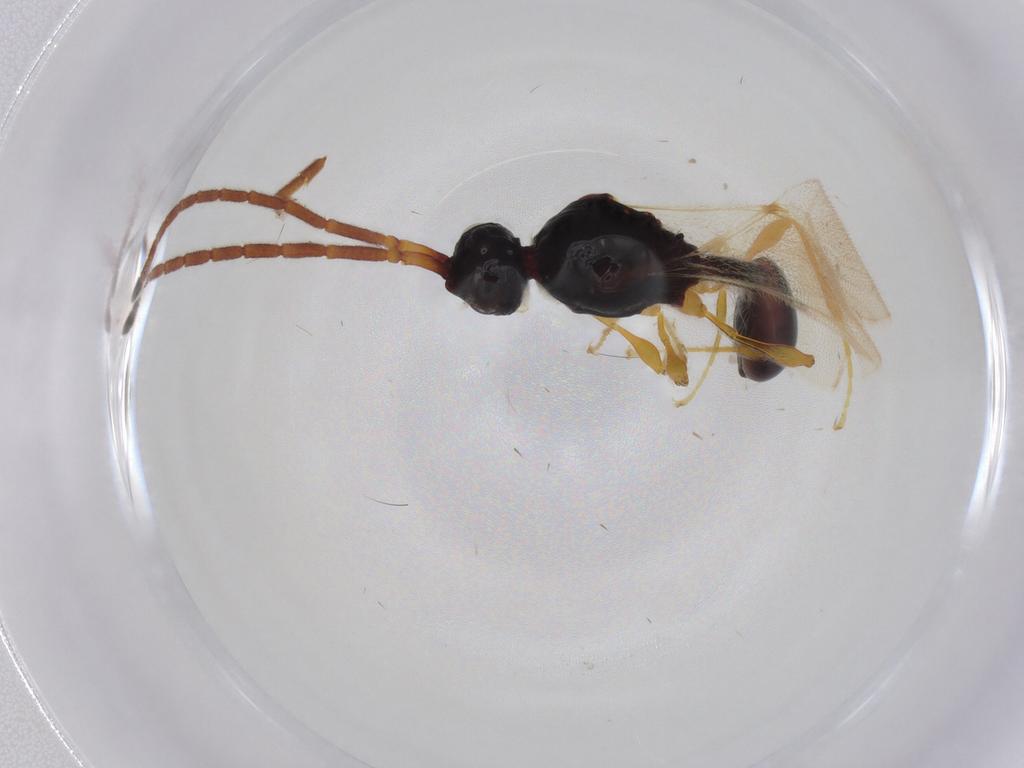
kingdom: Animalia
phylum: Arthropoda
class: Insecta
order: Hymenoptera
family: Diapriidae
